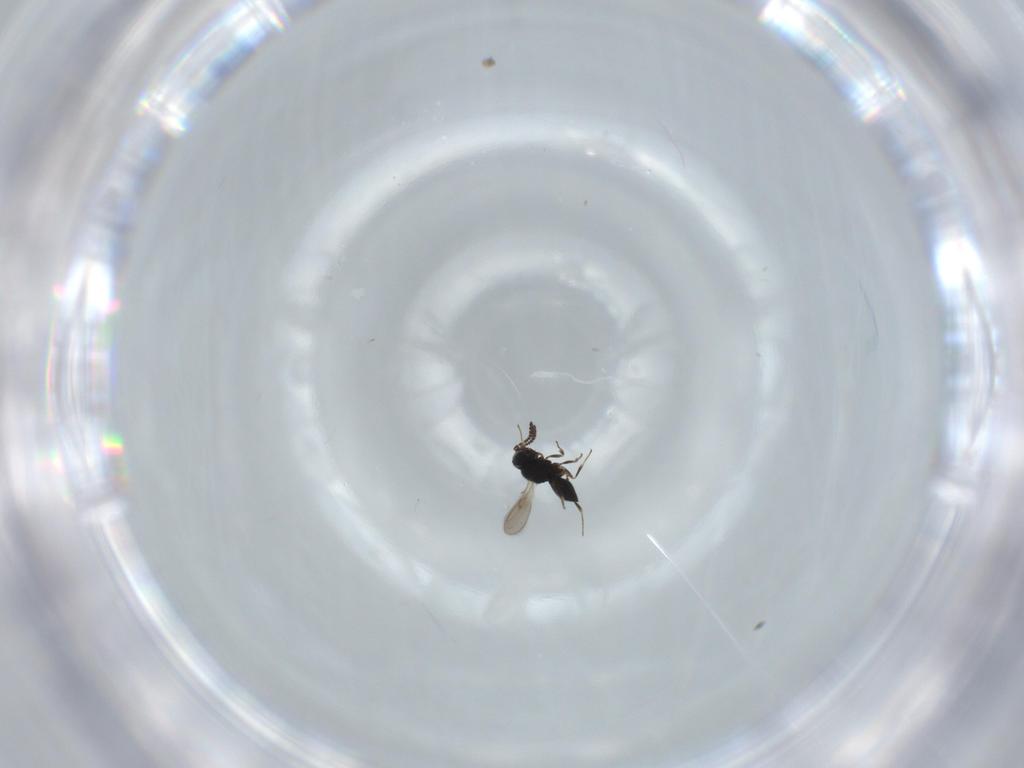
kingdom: Animalia
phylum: Arthropoda
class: Insecta
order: Hymenoptera
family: Scelionidae
